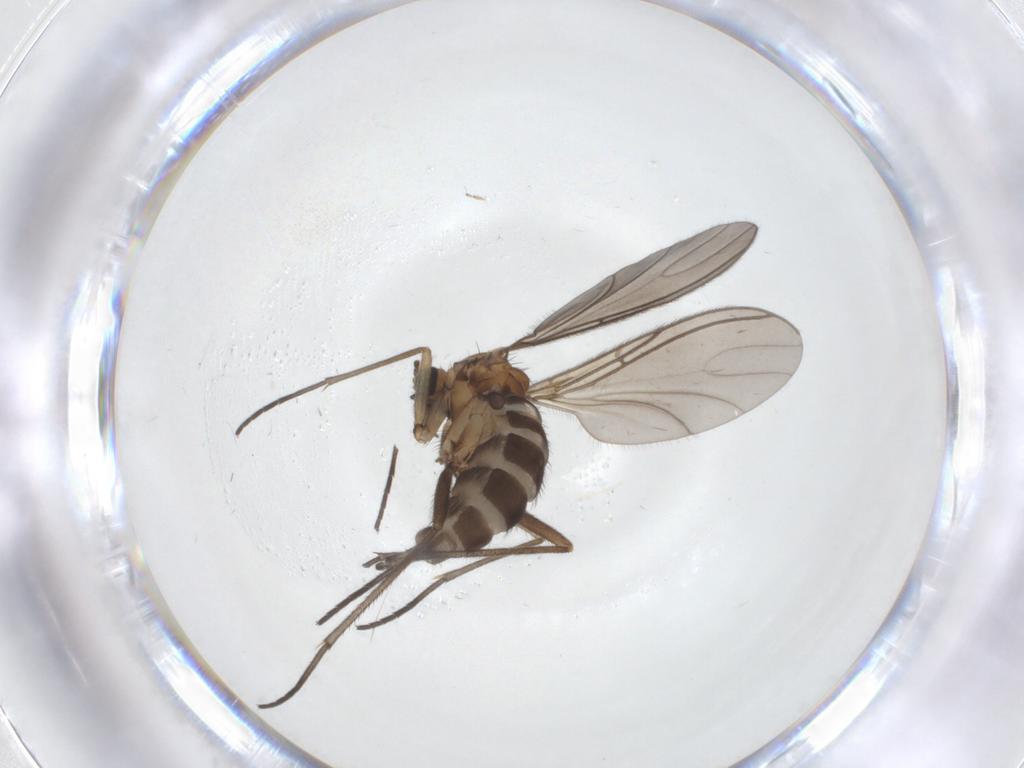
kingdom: Animalia
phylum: Arthropoda
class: Insecta
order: Diptera
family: Sciaridae
